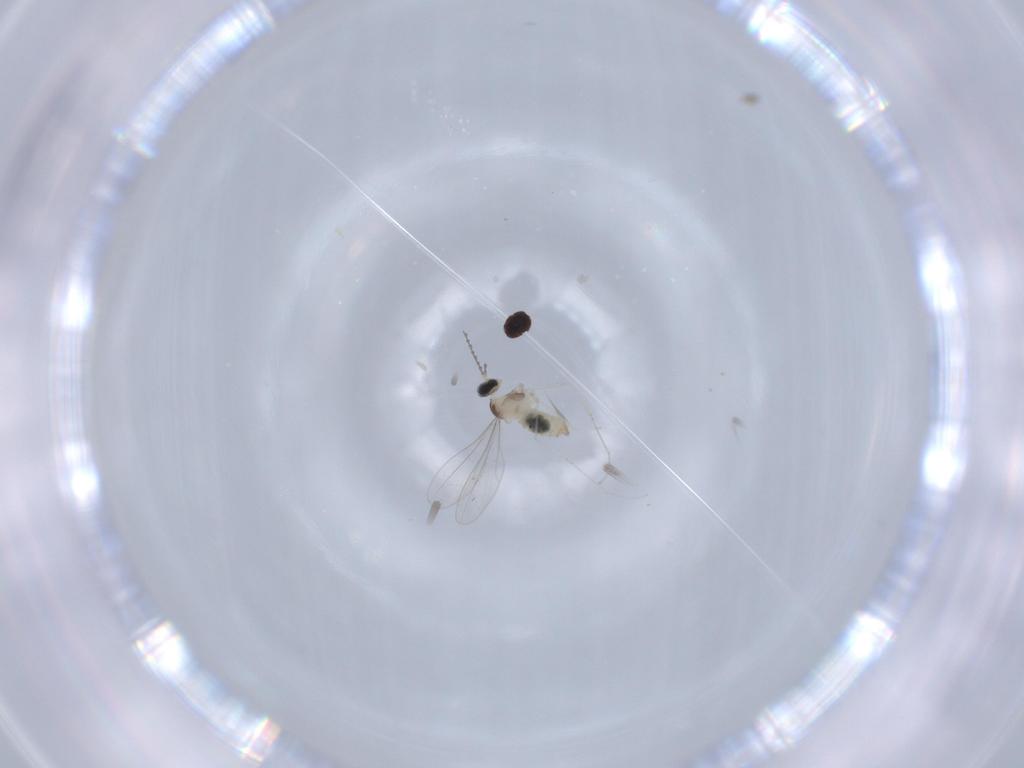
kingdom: Animalia
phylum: Arthropoda
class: Insecta
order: Diptera
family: Cecidomyiidae
